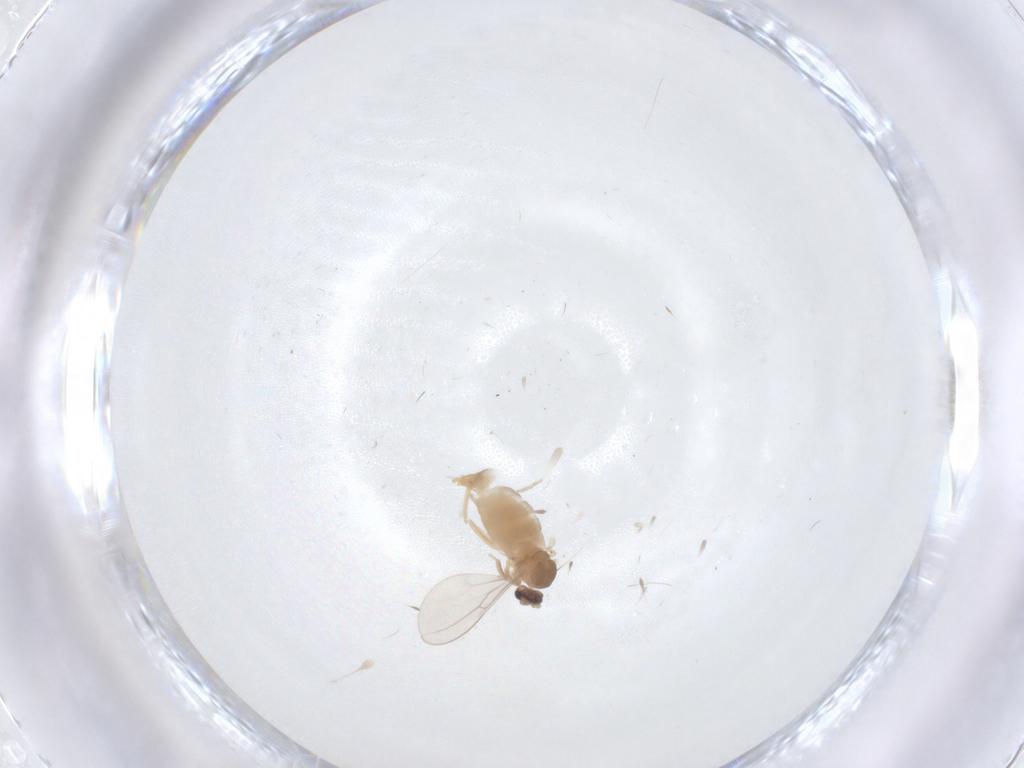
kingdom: Animalia
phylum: Arthropoda
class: Insecta
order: Diptera
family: Cecidomyiidae
